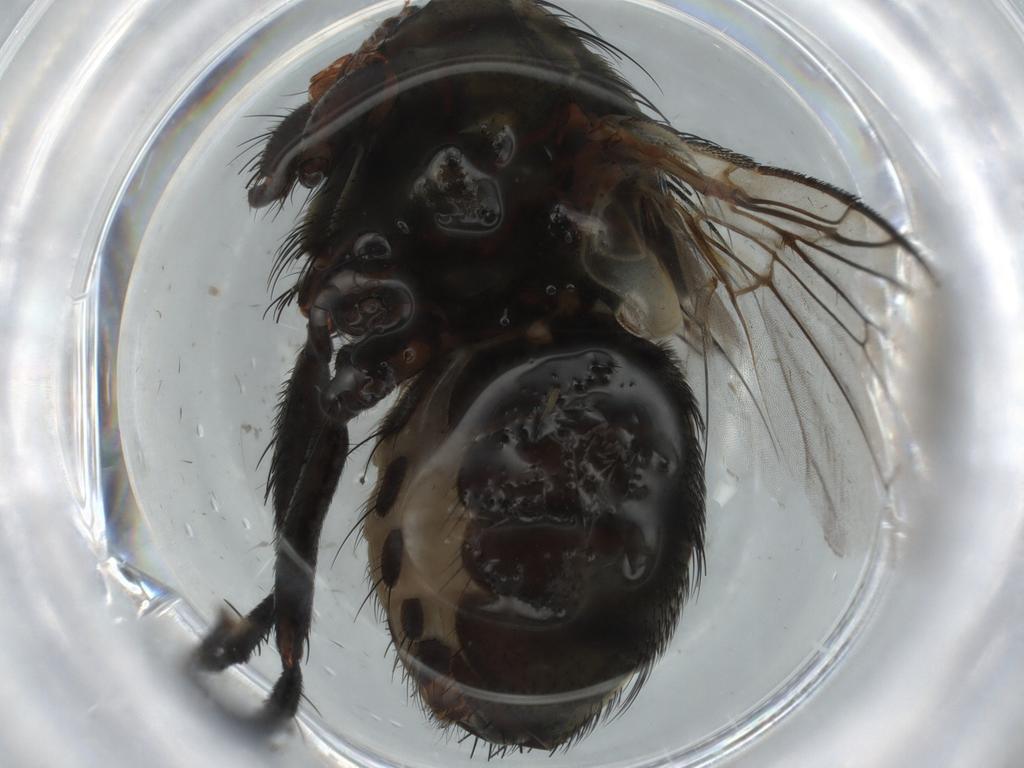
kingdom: Animalia
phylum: Arthropoda
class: Insecta
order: Diptera
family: Sarcophagidae
